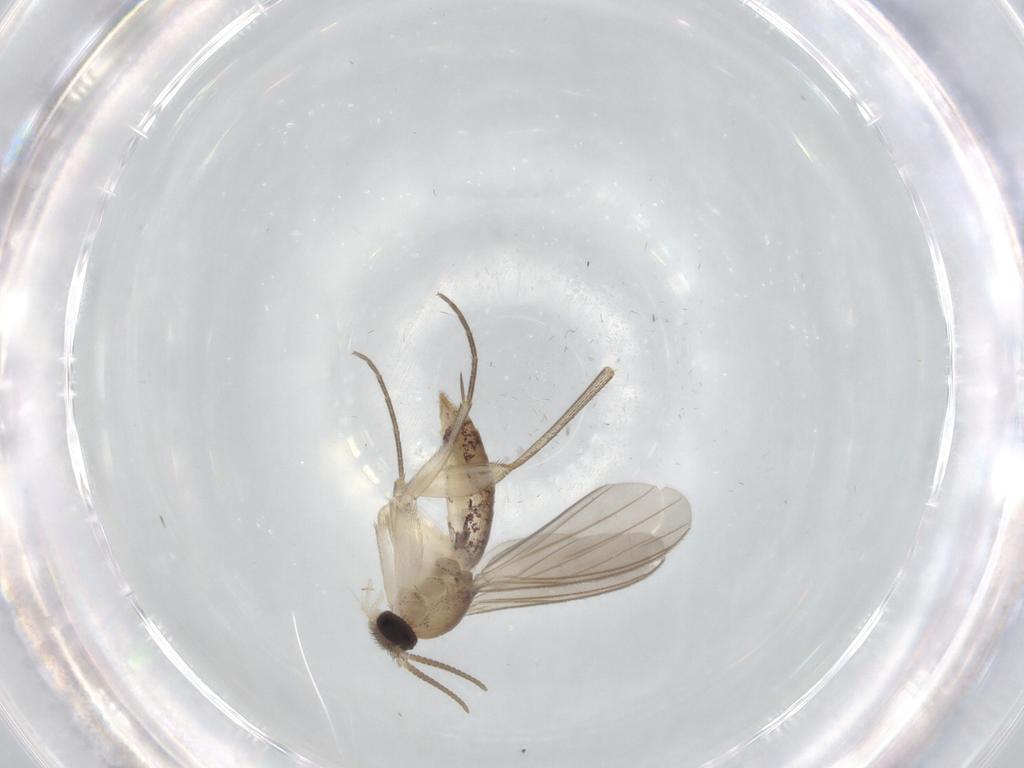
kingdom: Animalia
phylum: Arthropoda
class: Insecta
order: Diptera
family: Mycetophilidae
